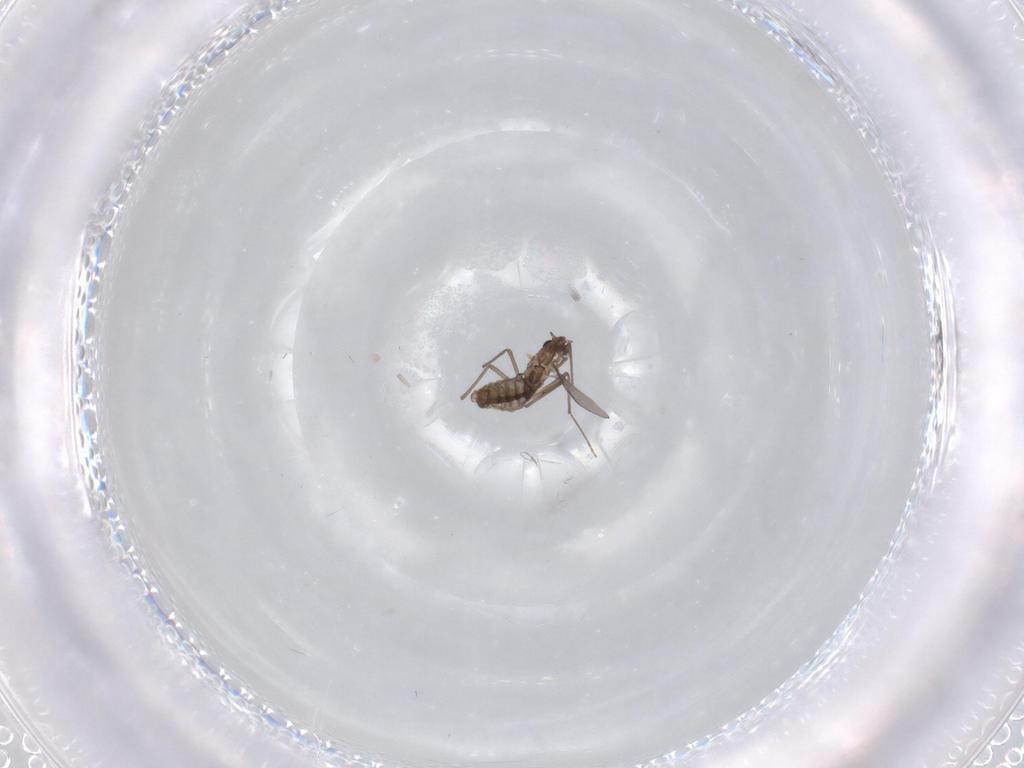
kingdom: Animalia
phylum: Arthropoda
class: Insecta
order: Diptera
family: Chironomidae
